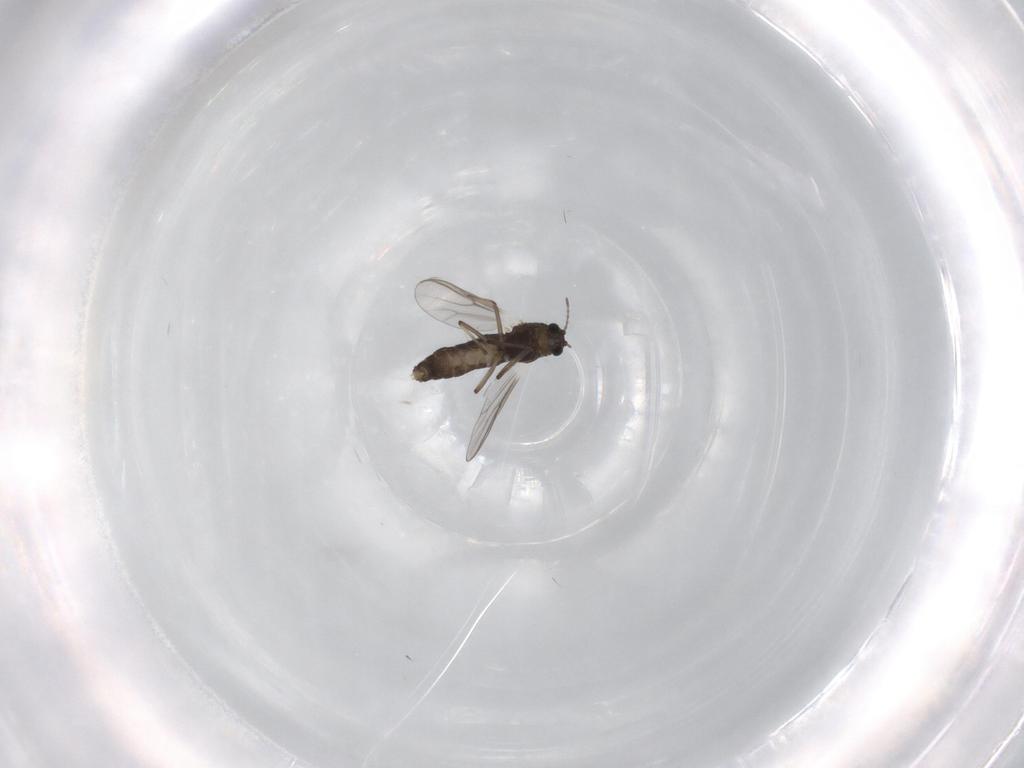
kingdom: Animalia
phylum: Arthropoda
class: Insecta
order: Diptera
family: Chironomidae
